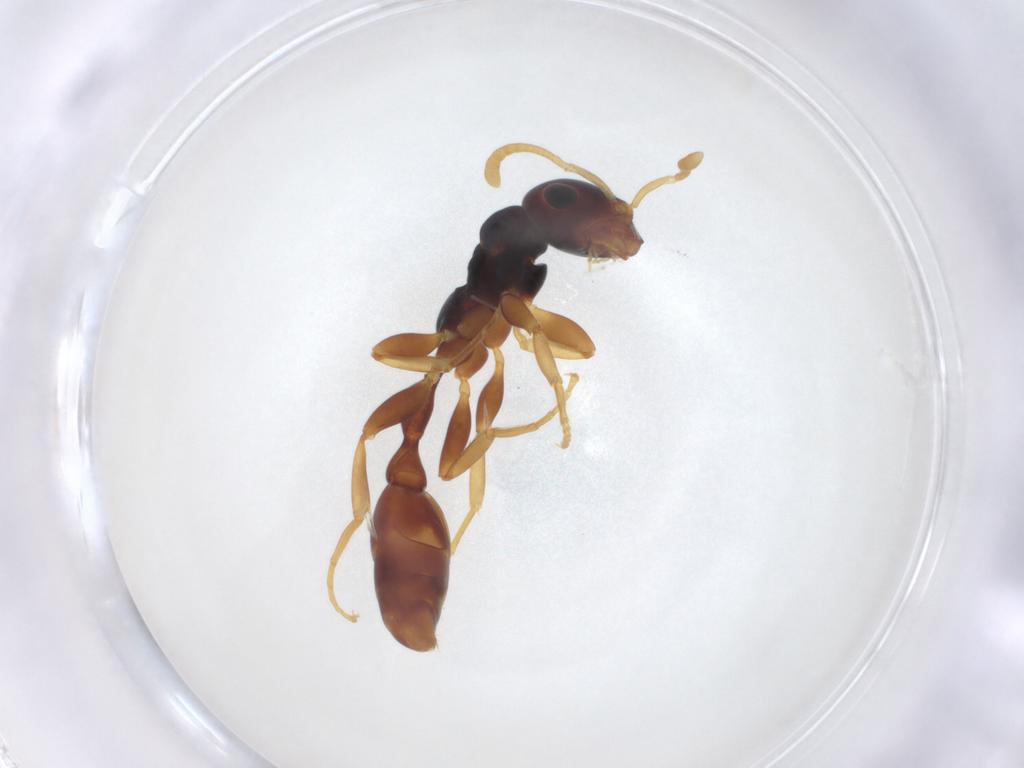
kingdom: Animalia
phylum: Arthropoda
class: Insecta
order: Hymenoptera
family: Formicidae
